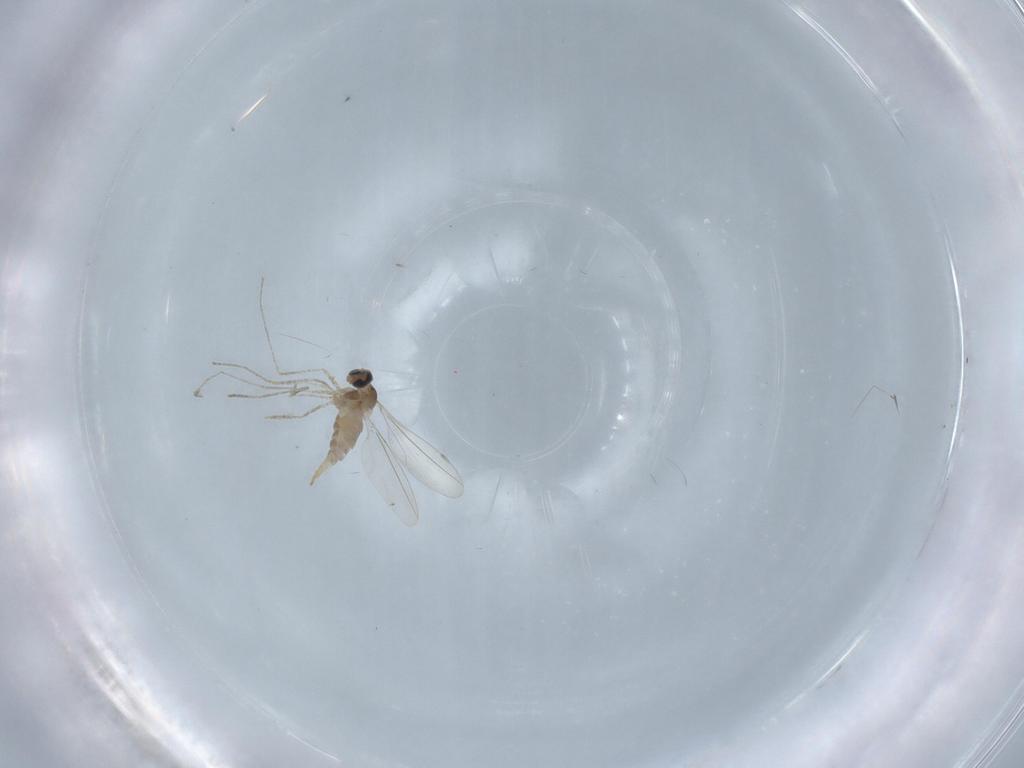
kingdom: Animalia
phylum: Arthropoda
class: Insecta
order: Diptera
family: Cecidomyiidae
